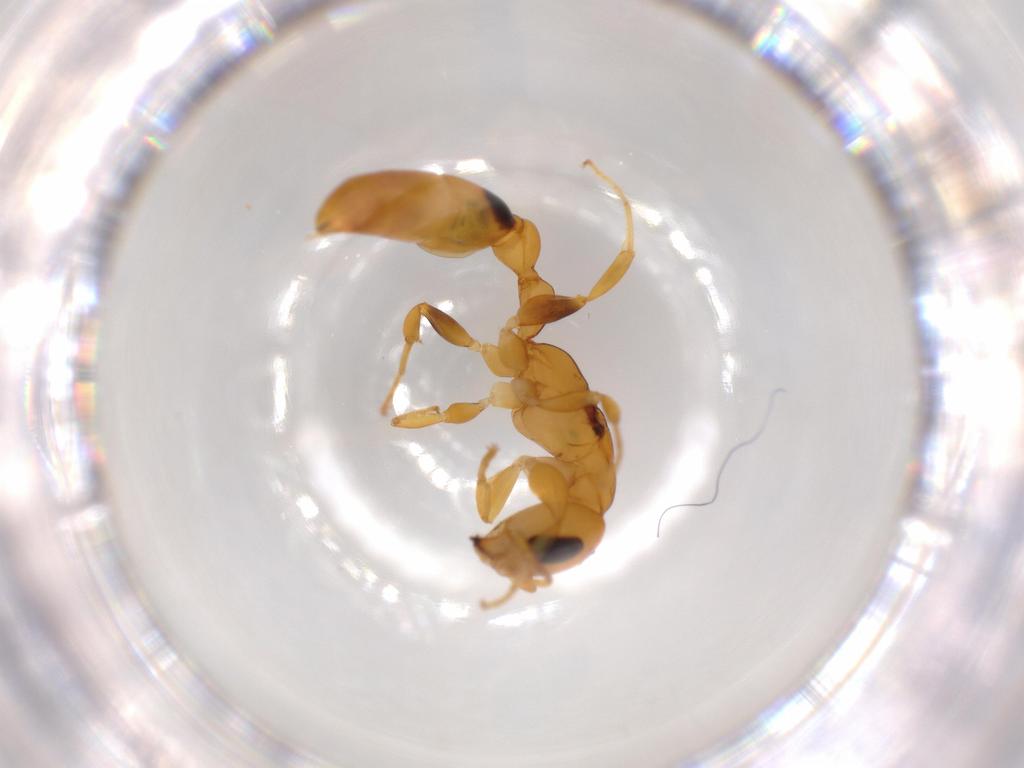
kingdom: Animalia
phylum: Arthropoda
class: Insecta
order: Hymenoptera
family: Formicidae
